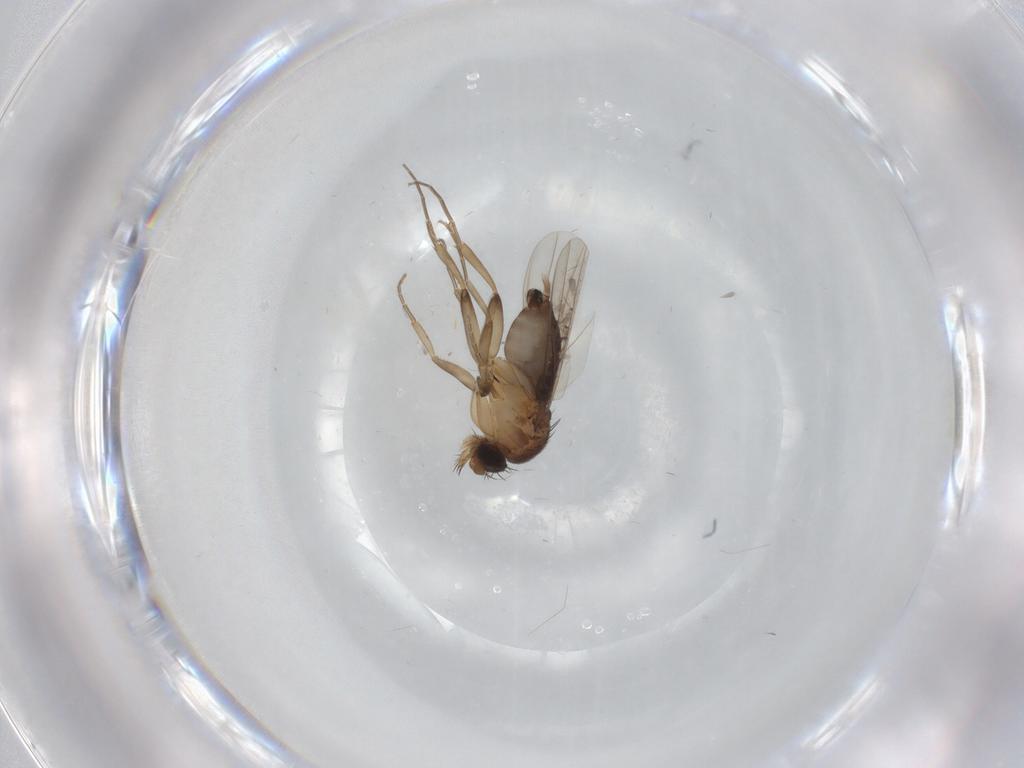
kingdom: Animalia
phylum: Arthropoda
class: Insecta
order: Diptera
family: Phoridae
